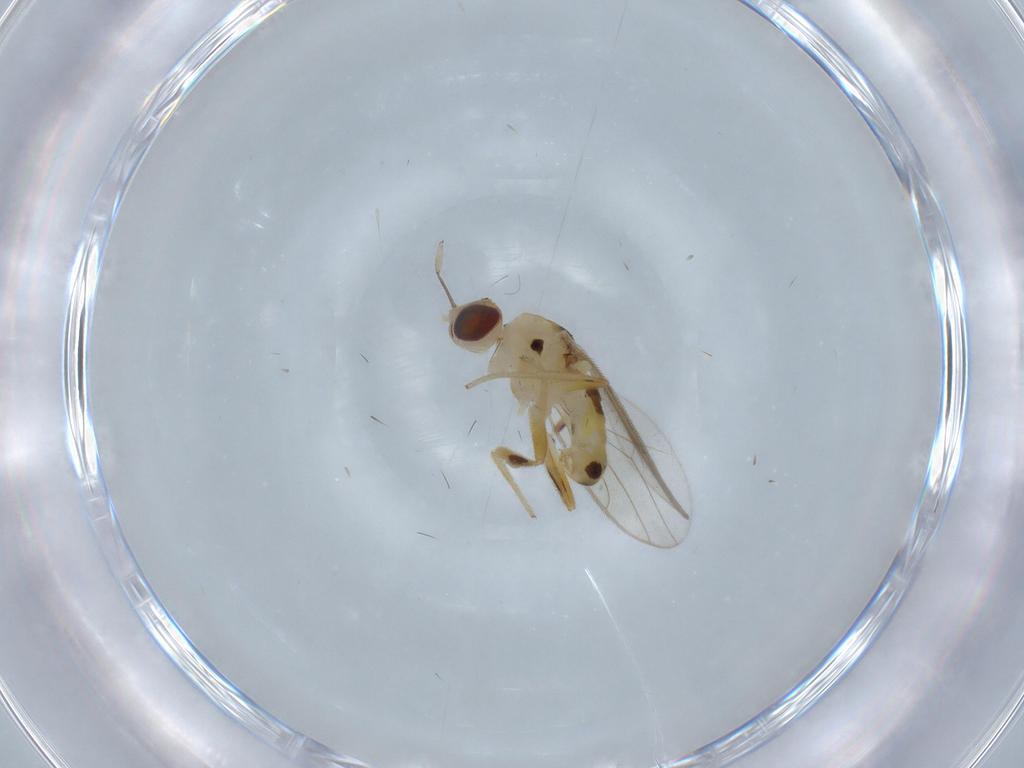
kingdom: Animalia
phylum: Arthropoda
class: Insecta
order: Diptera
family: Chloropidae
